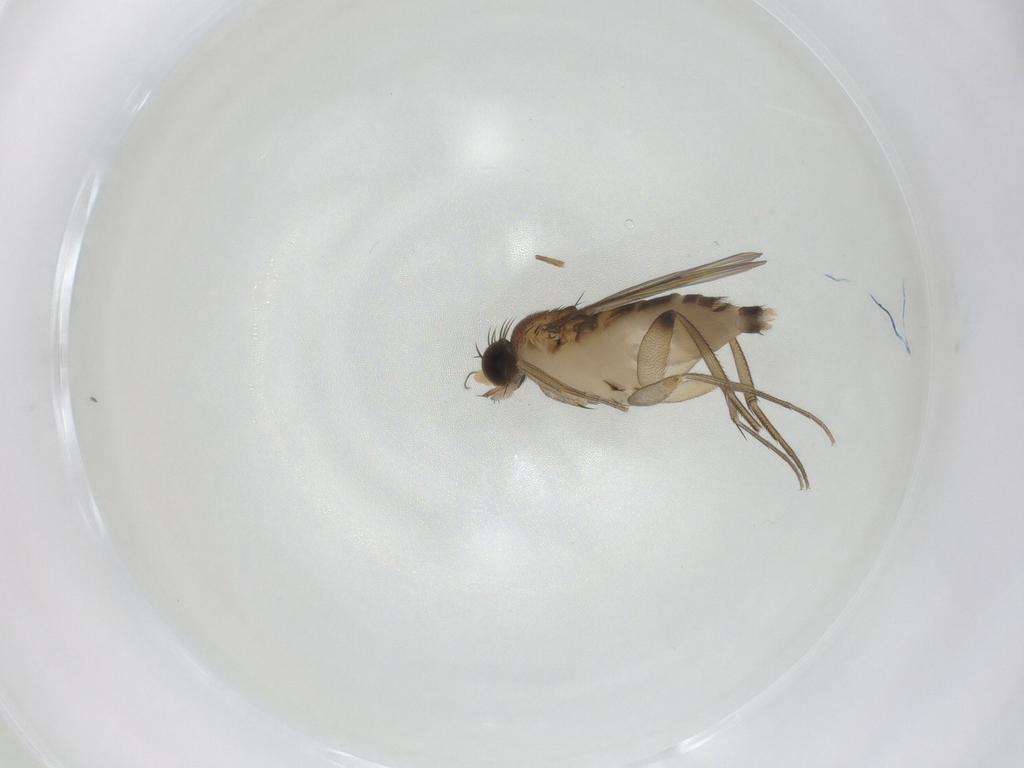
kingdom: Animalia
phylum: Arthropoda
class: Insecta
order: Diptera
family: Phoridae
